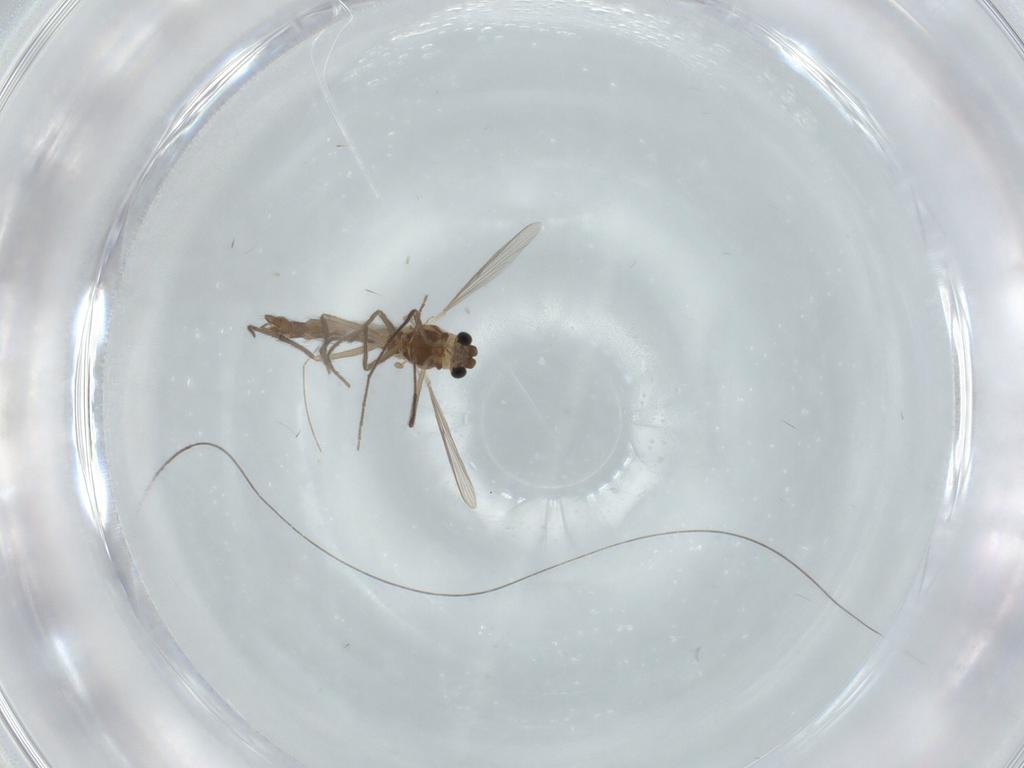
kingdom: Animalia
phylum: Arthropoda
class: Insecta
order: Diptera
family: Chironomidae
